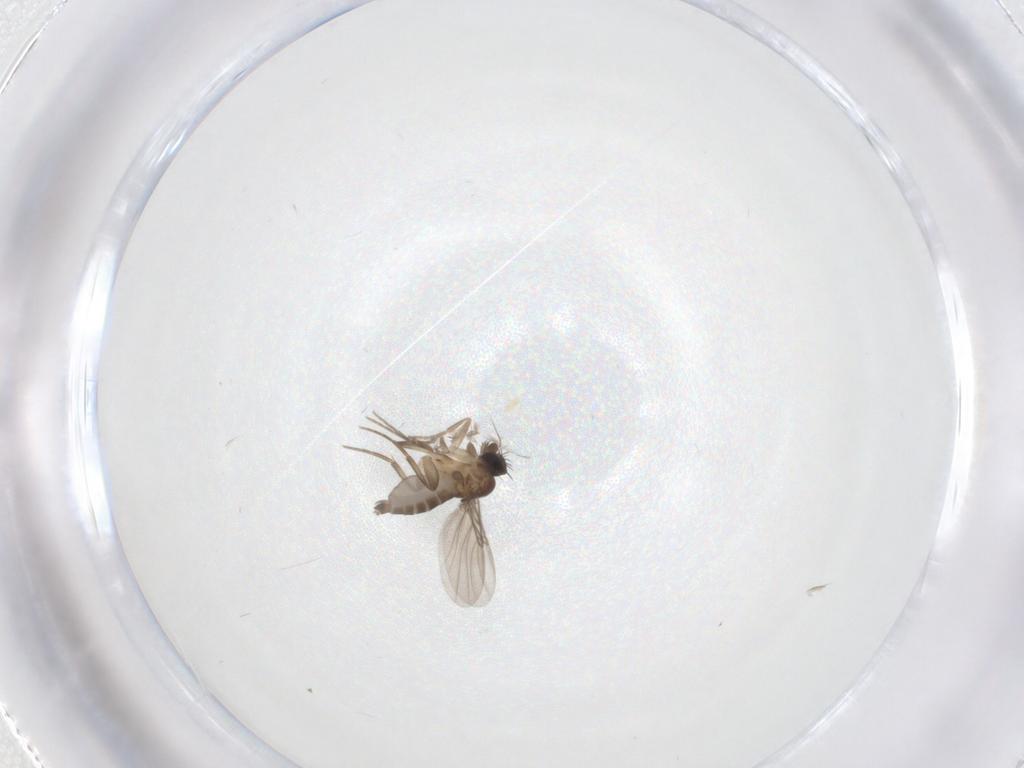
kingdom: Animalia
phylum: Arthropoda
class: Insecta
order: Diptera
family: Phoridae
